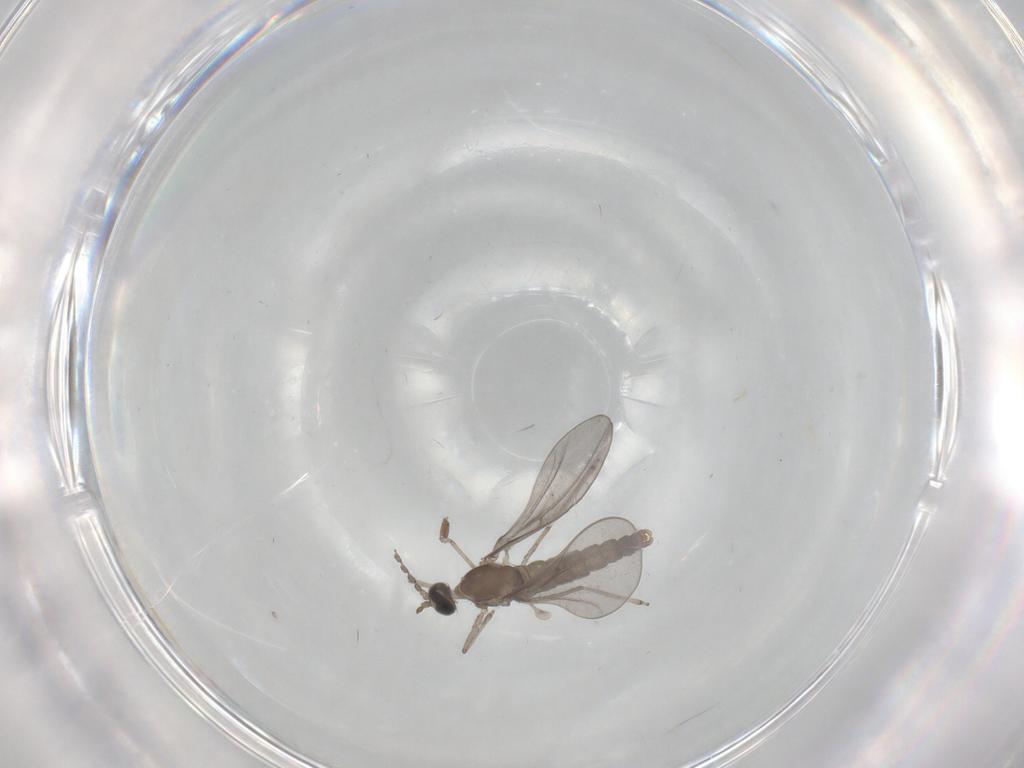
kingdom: Animalia
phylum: Arthropoda
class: Insecta
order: Diptera
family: Cecidomyiidae
